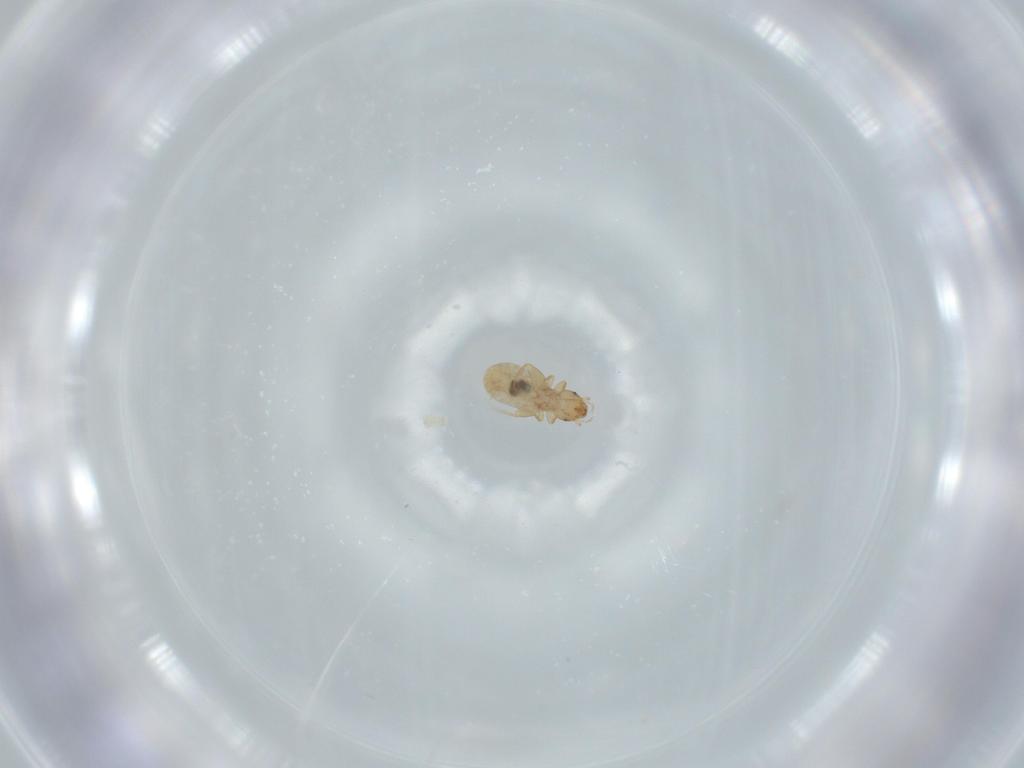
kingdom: Animalia
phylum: Arthropoda
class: Insecta
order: Psocodea
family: Liposcelididae
